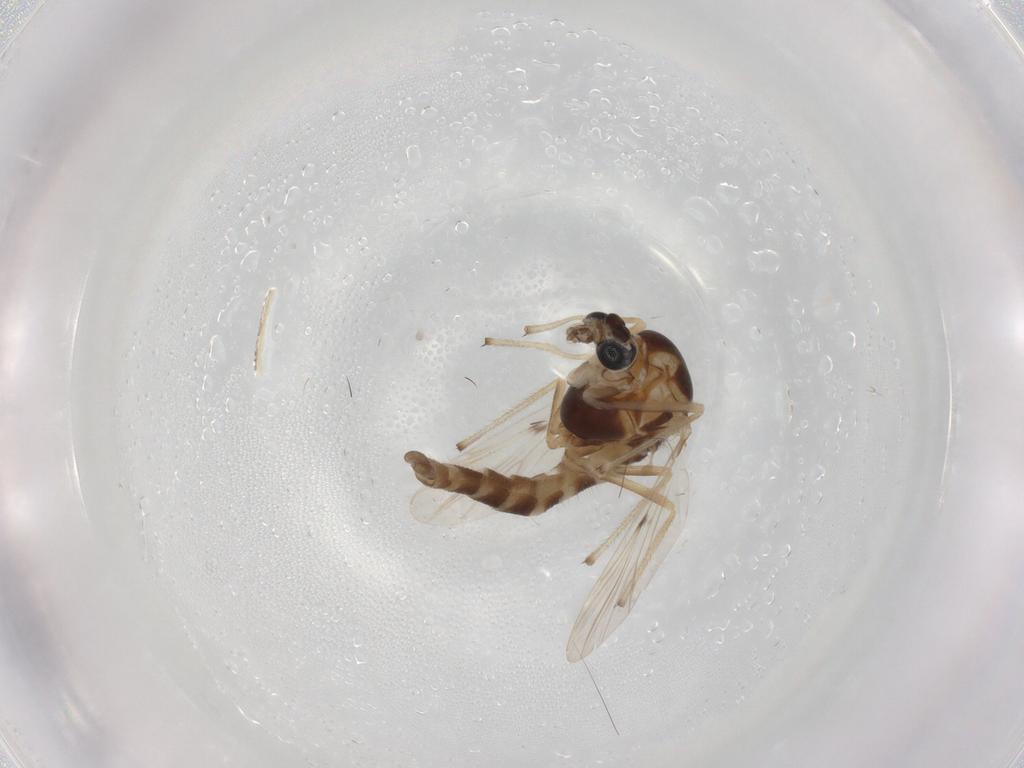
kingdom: Animalia
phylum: Arthropoda
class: Insecta
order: Diptera
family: Chironomidae
